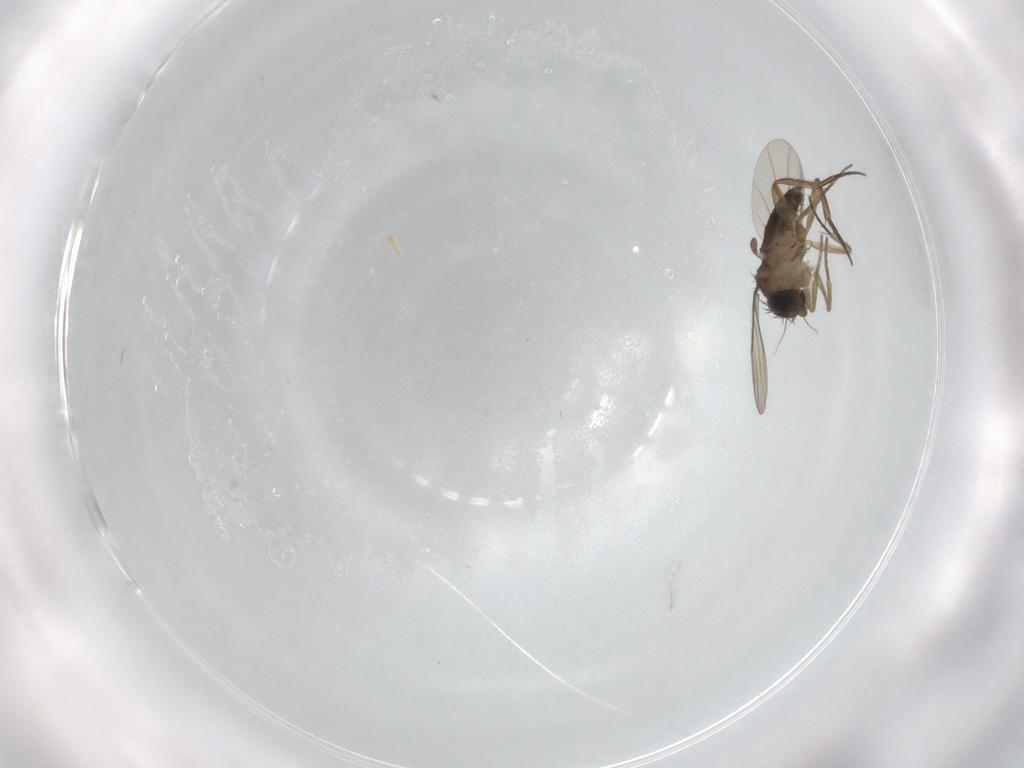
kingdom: Animalia
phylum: Arthropoda
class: Insecta
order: Diptera
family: Phoridae
